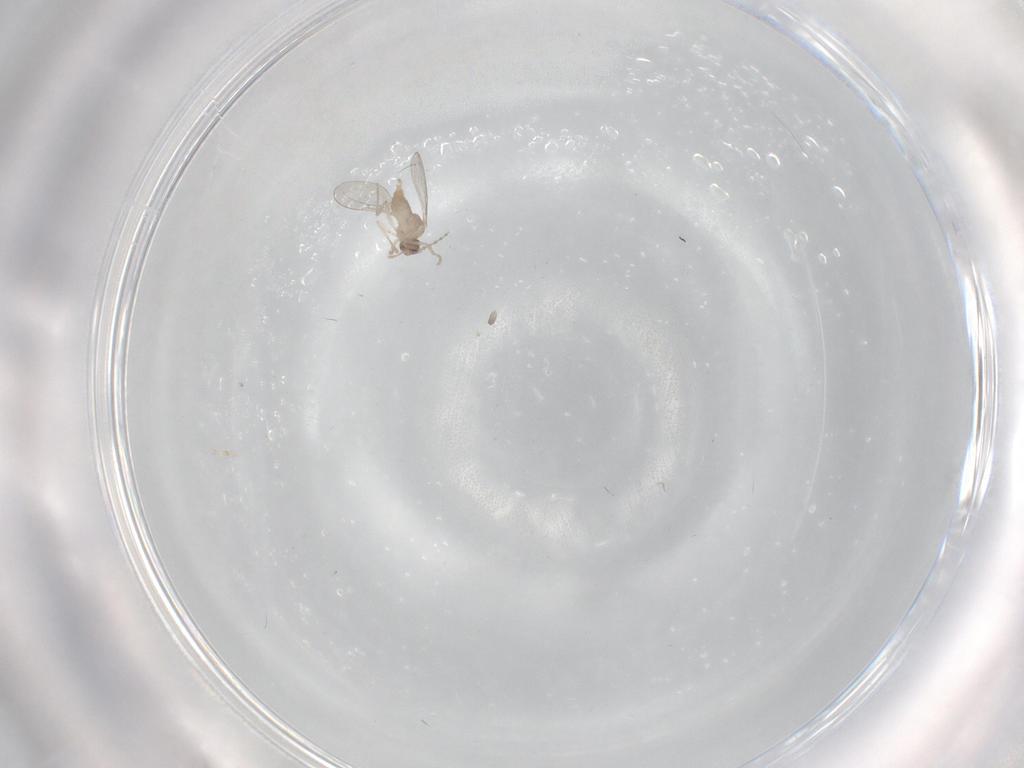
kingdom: Animalia
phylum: Arthropoda
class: Insecta
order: Diptera
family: Cecidomyiidae
